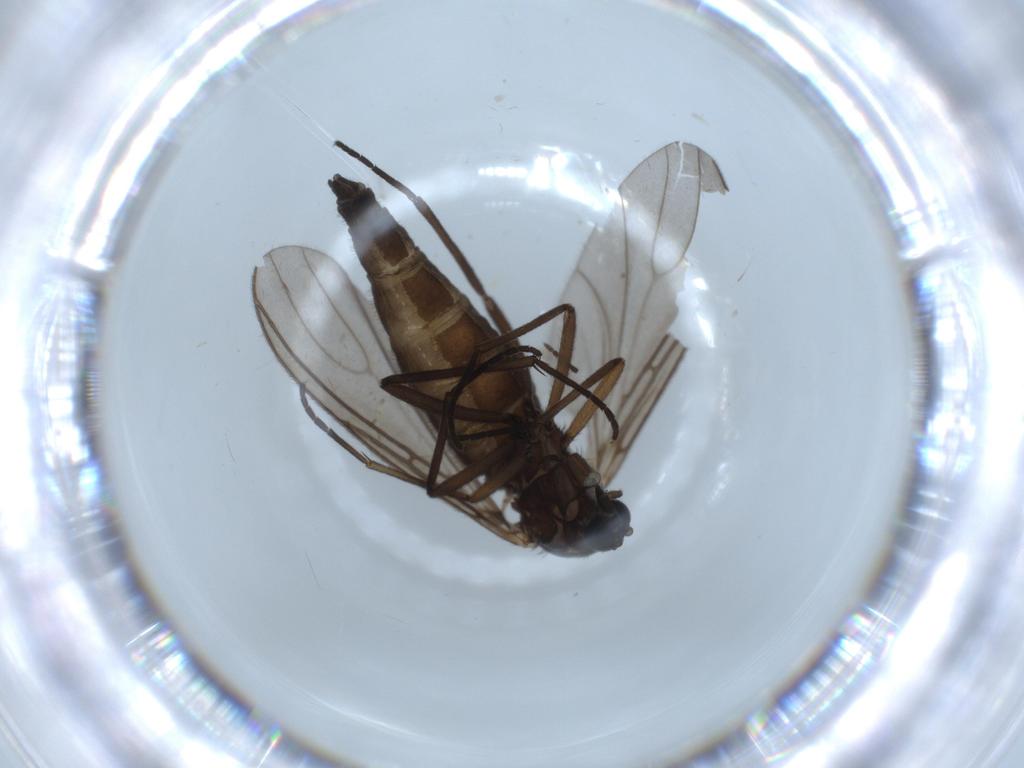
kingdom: Animalia
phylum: Arthropoda
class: Insecta
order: Diptera
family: Sciaridae
